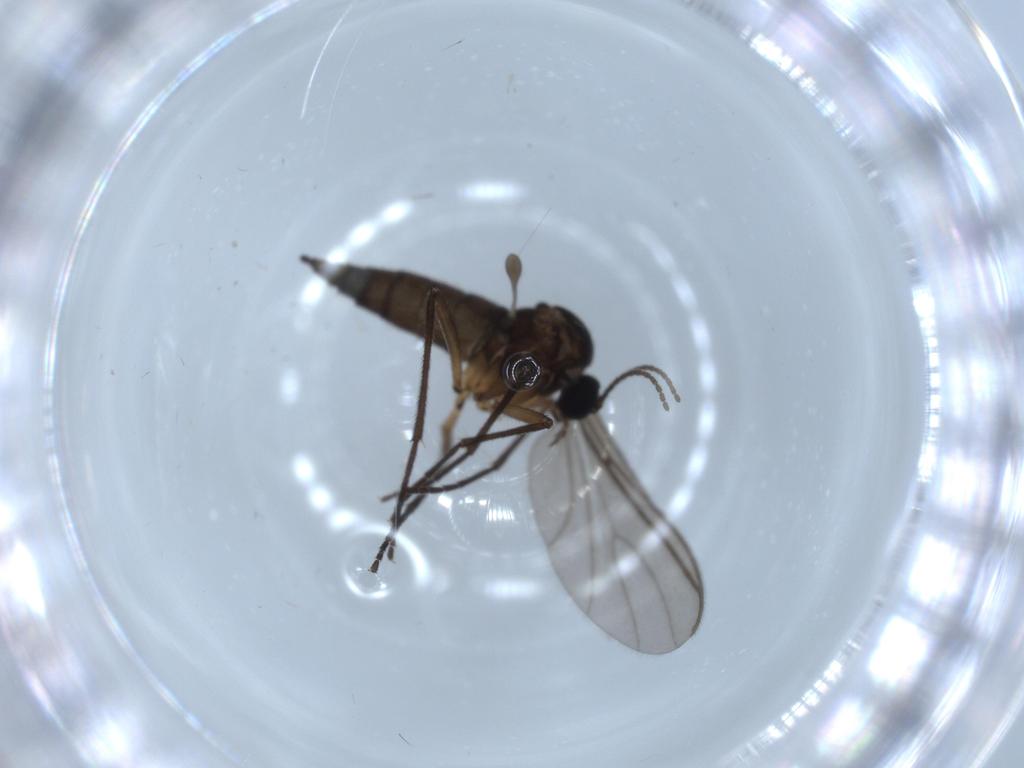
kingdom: Animalia
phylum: Arthropoda
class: Insecta
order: Diptera
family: Sciaridae
